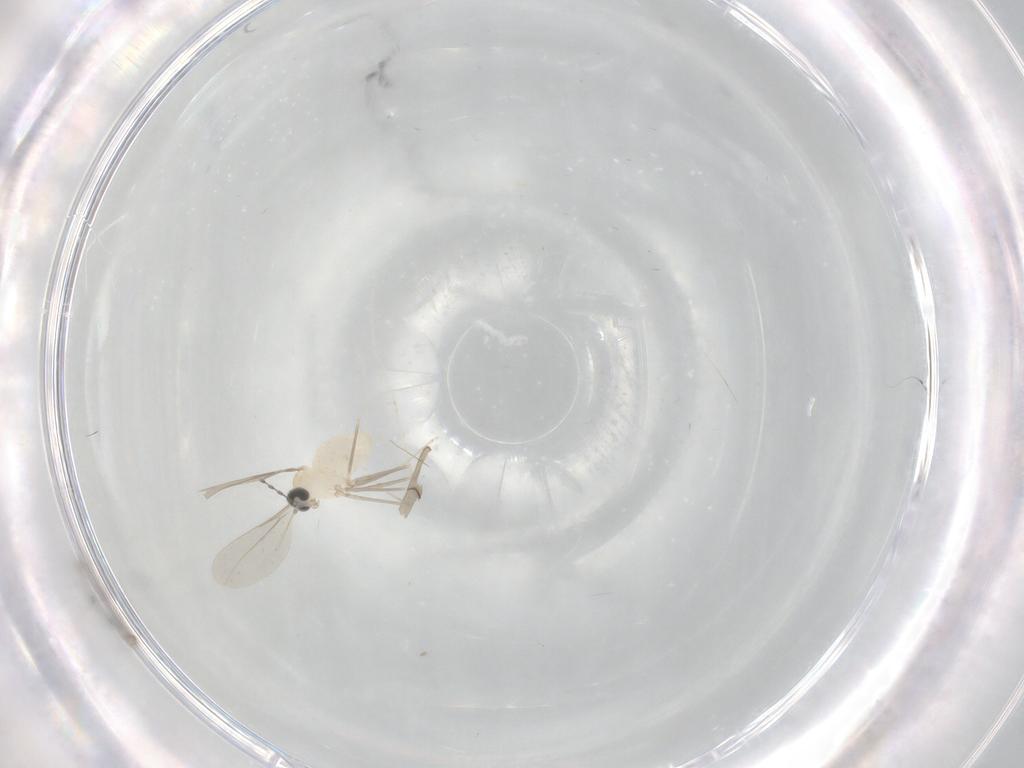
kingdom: Animalia
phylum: Arthropoda
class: Insecta
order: Diptera
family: Cecidomyiidae
